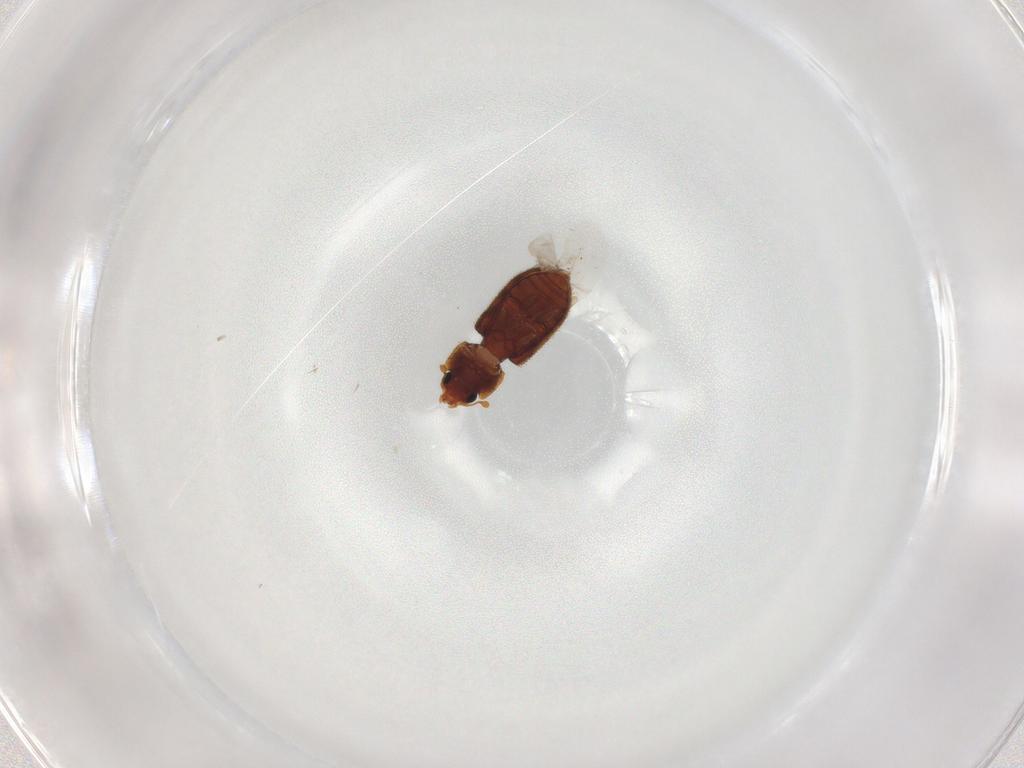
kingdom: Animalia
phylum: Arthropoda
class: Insecta
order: Coleoptera
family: Zopheridae
